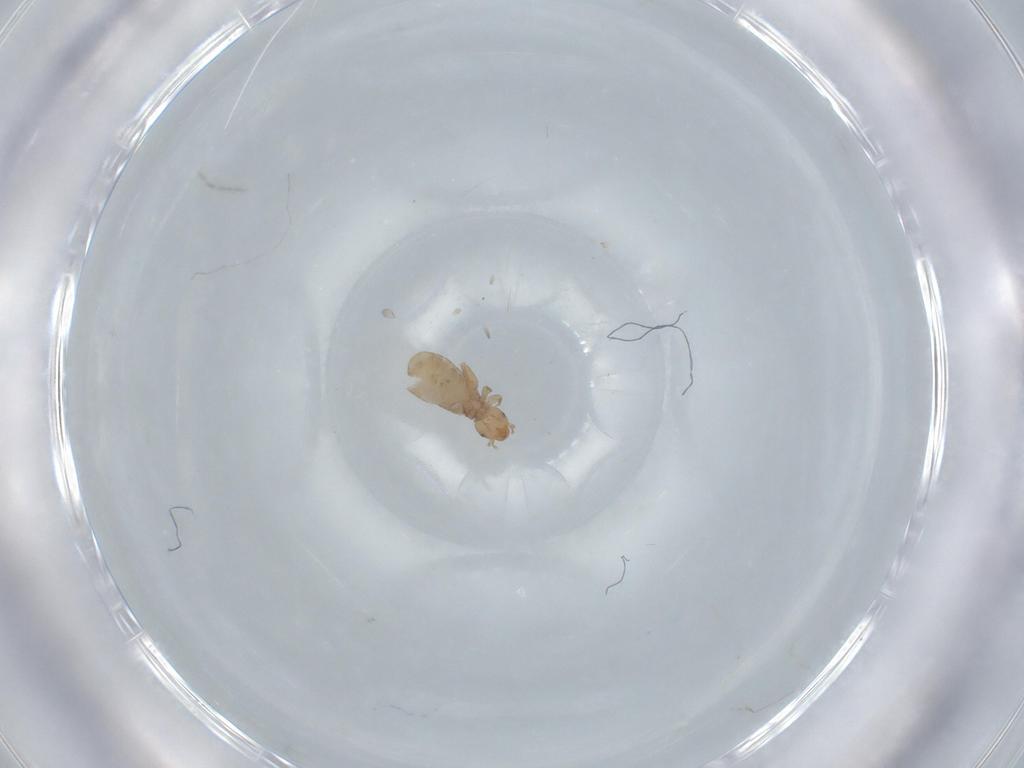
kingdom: Animalia
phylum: Arthropoda
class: Insecta
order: Psocodea
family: Liposcelididae
